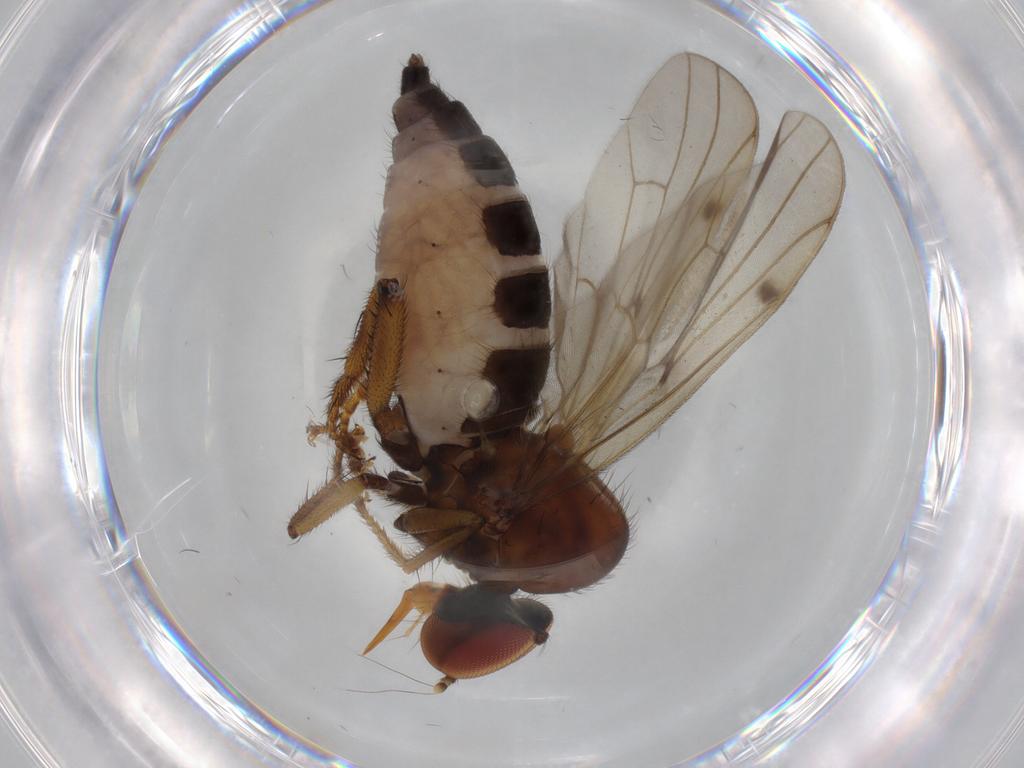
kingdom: Animalia
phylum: Arthropoda
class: Insecta
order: Diptera
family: Hybotidae
